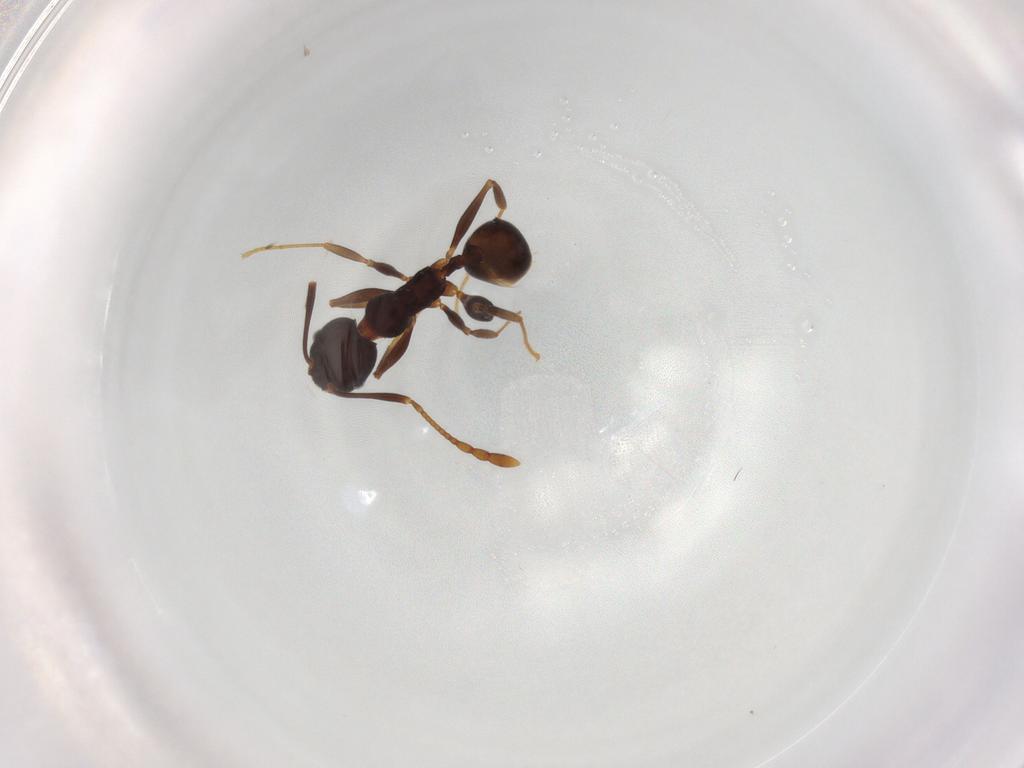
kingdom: Animalia
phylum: Arthropoda
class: Insecta
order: Hymenoptera
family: Formicidae
